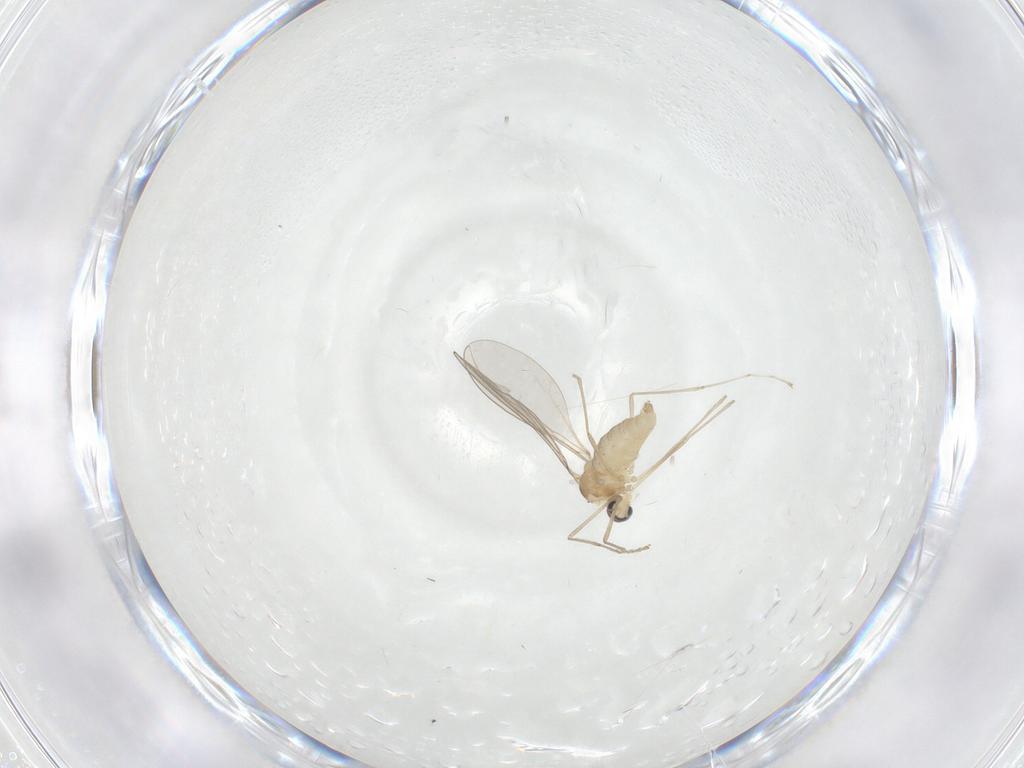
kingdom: Animalia
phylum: Arthropoda
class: Insecta
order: Diptera
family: Cecidomyiidae
